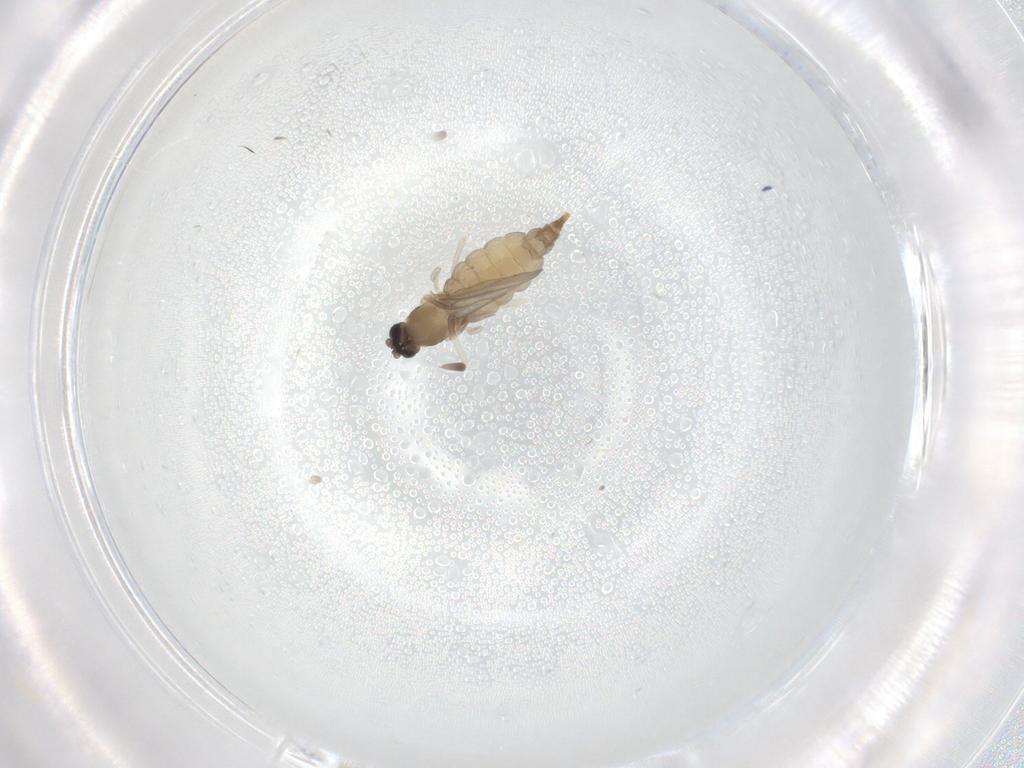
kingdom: Animalia
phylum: Arthropoda
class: Insecta
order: Diptera
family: Cecidomyiidae
